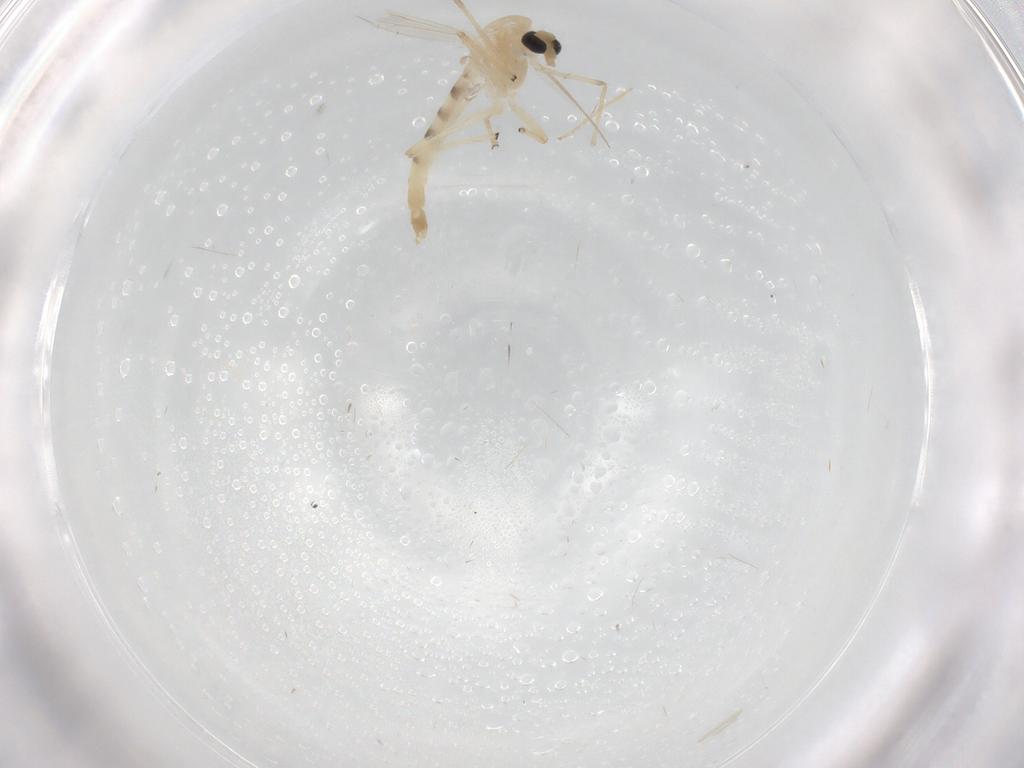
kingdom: Animalia
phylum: Arthropoda
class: Insecta
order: Diptera
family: Chironomidae
